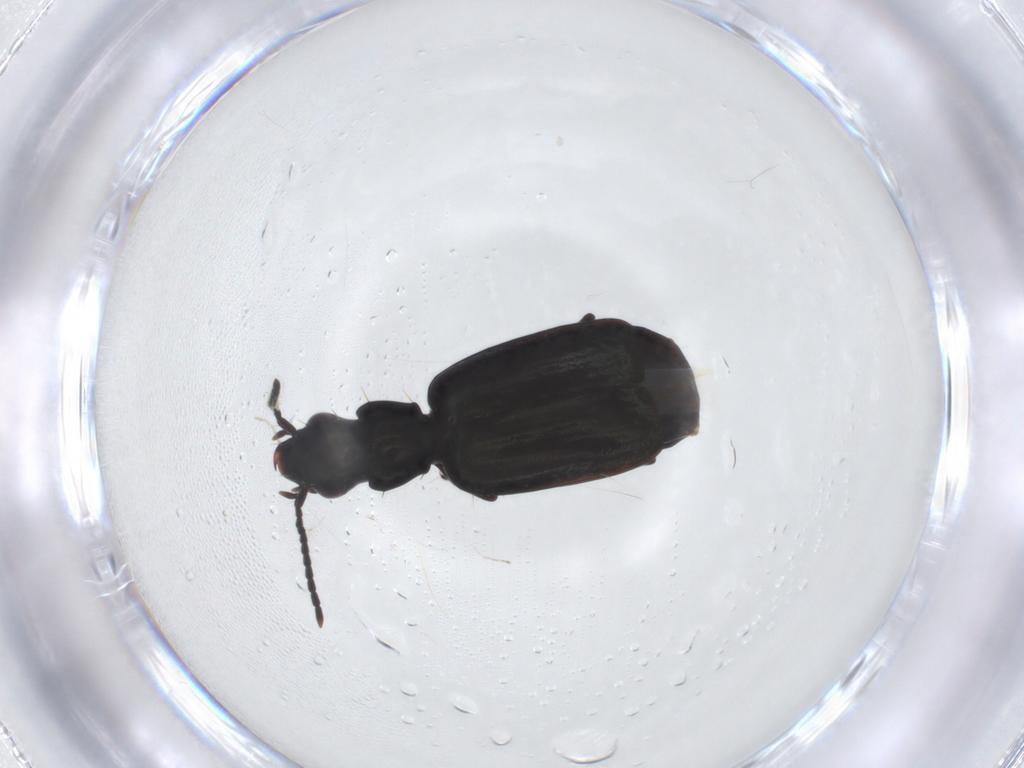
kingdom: Animalia
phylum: Arthropoda
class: Insecta
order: Coleoptera
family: Carabidae
